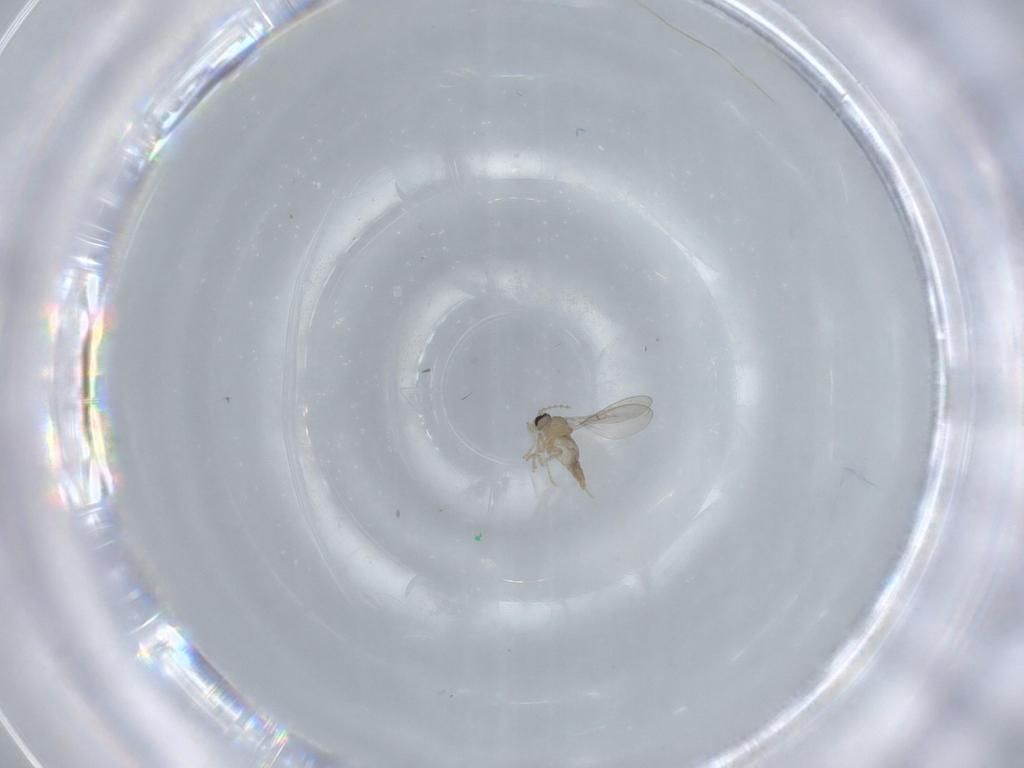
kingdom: Animalia
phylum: Arthropoda
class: Insecta
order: Diptera
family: Cecidomyiidae
